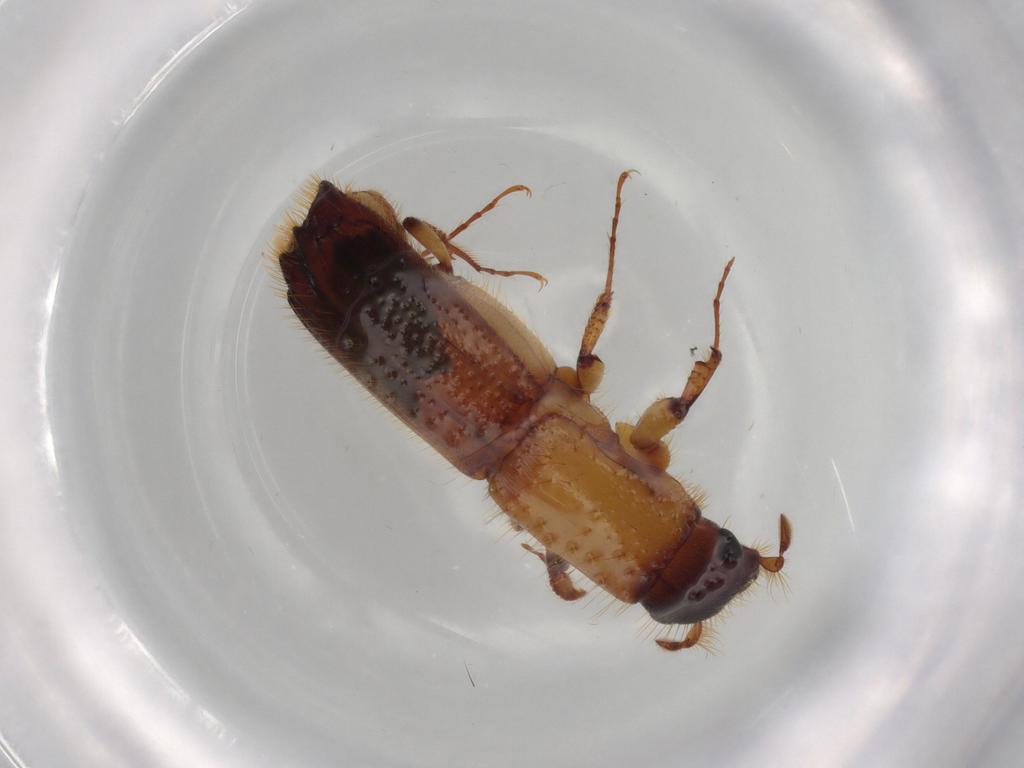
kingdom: Animalia
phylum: Arthropoda
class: Insecta
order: Coleoptera
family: Curculionidae
